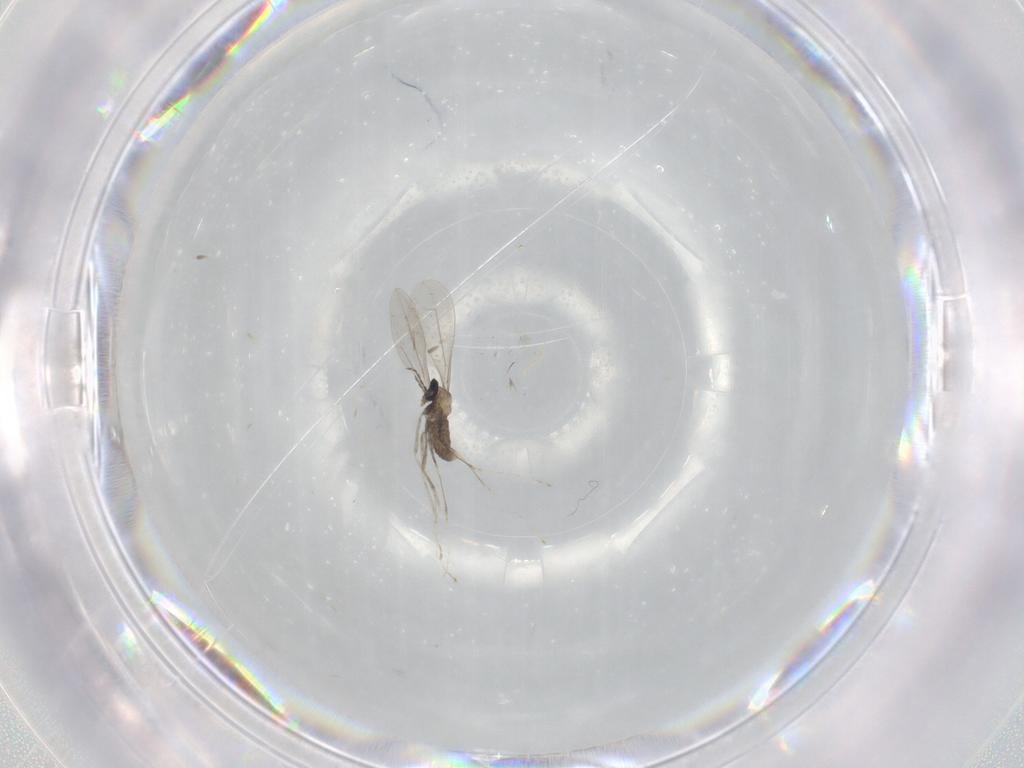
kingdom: Animalia
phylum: Arthropoda
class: Insecta
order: Diptera
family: Cecidomyiidae
